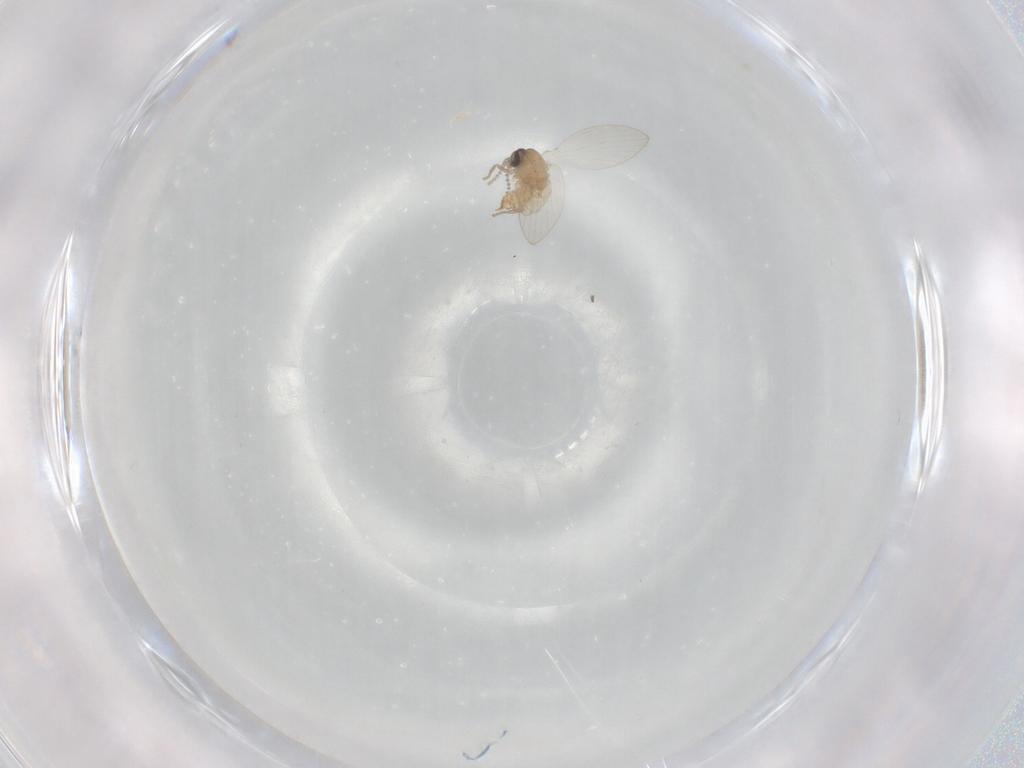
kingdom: Animalia
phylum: Arthropoda
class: Insecta
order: Diptera
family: Psychodidae
